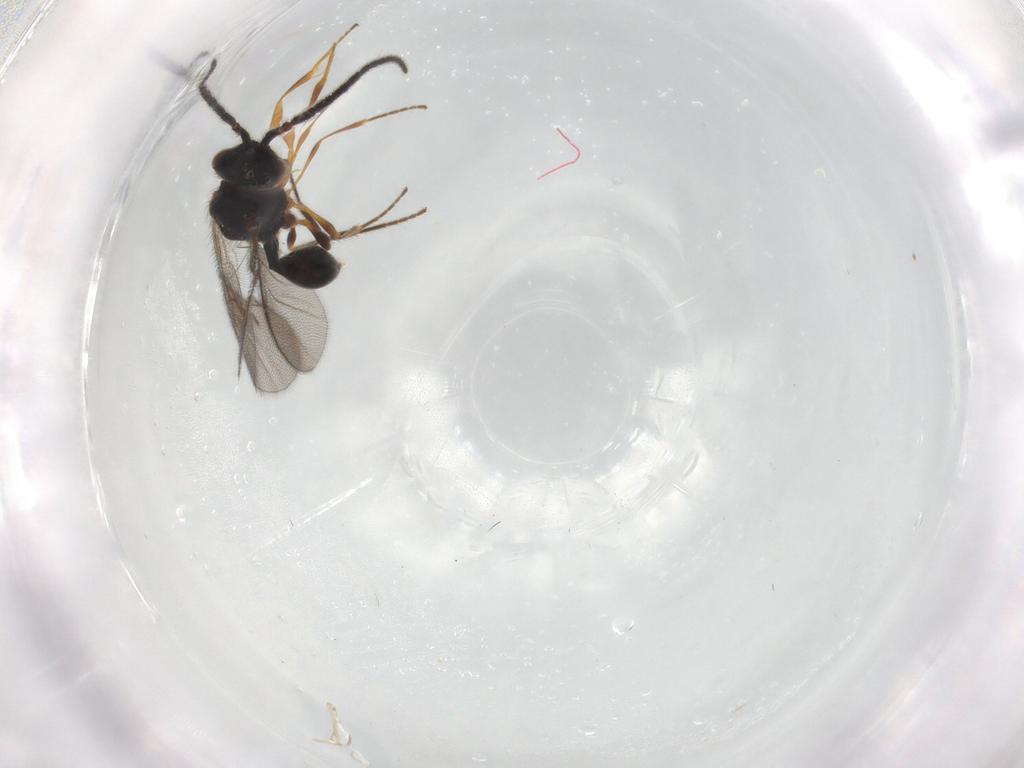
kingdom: Animalia
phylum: Arthropoda
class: Insecta
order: Hymenoptera
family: Diapriidae
